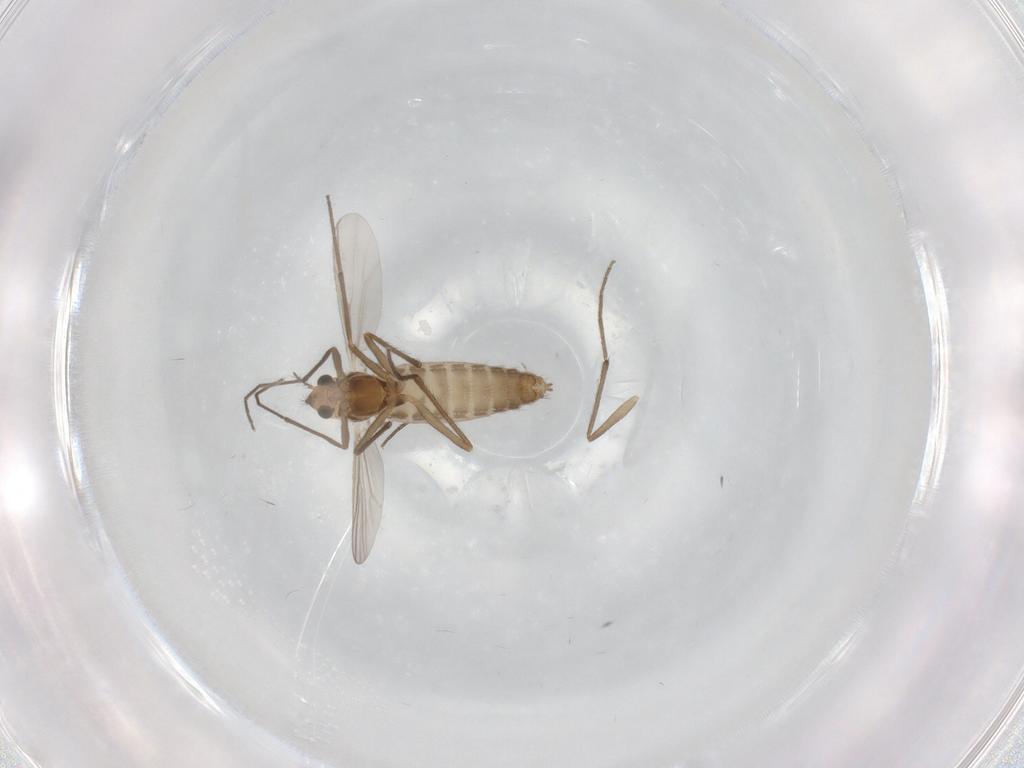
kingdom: Animalia
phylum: Arthropoda
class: Insecta
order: Diptera
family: Chironomidae
